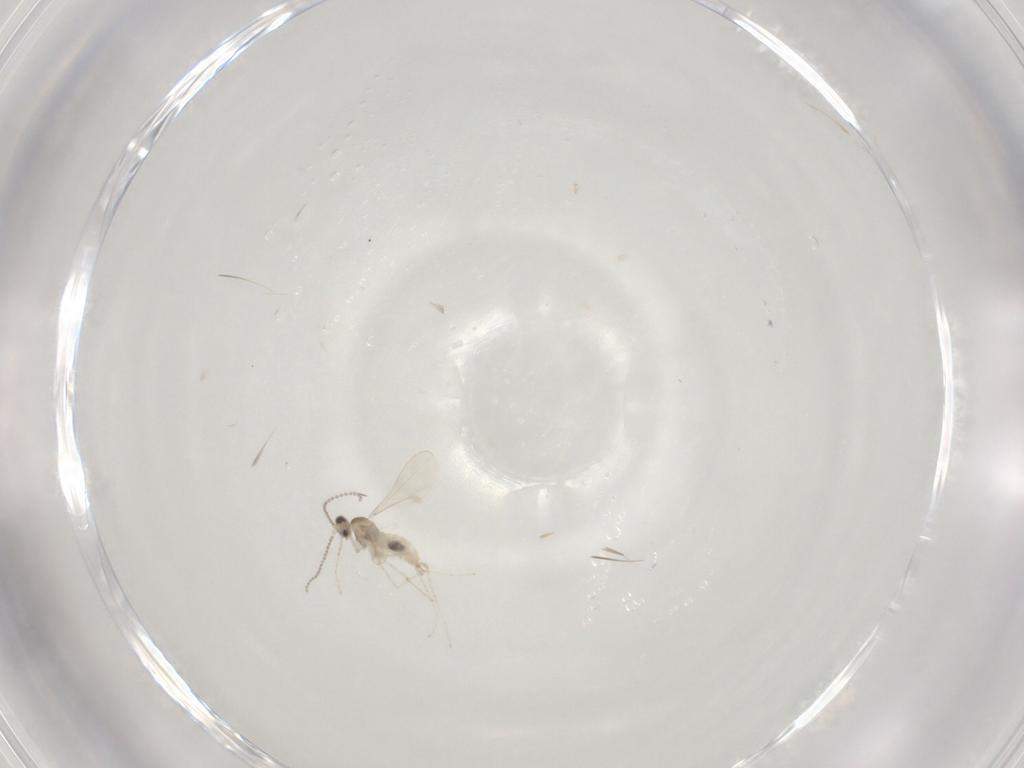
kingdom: Animalia
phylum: Arthropoda
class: Insecta
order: Diptera
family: Cecidomyiidae
